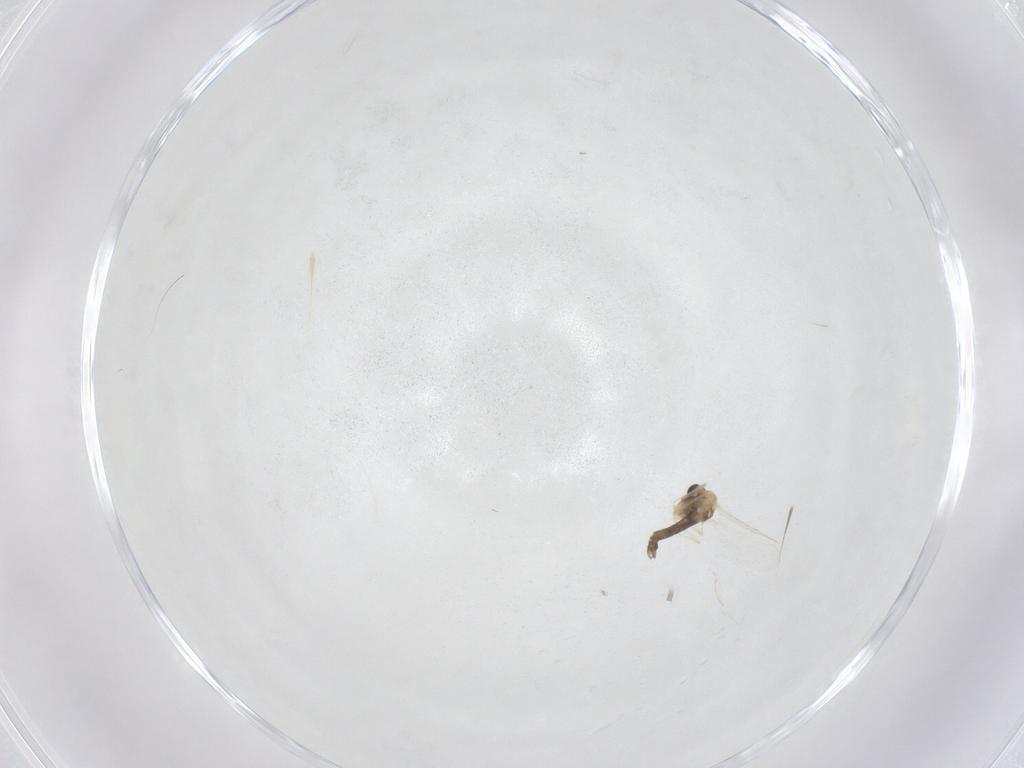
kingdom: Animalia
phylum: Arthropoda
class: Insecta
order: Diptera
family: Chironomidae
